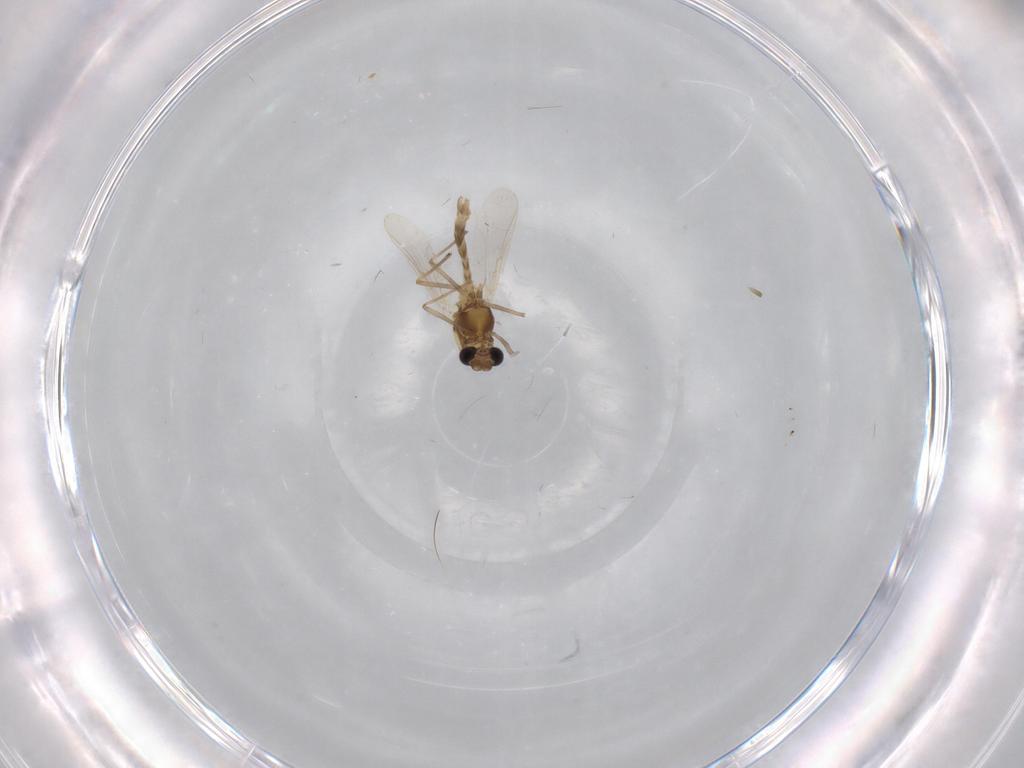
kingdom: Animalia
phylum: Arthropoda
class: Insecta
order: Diptera
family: Chironomidae
